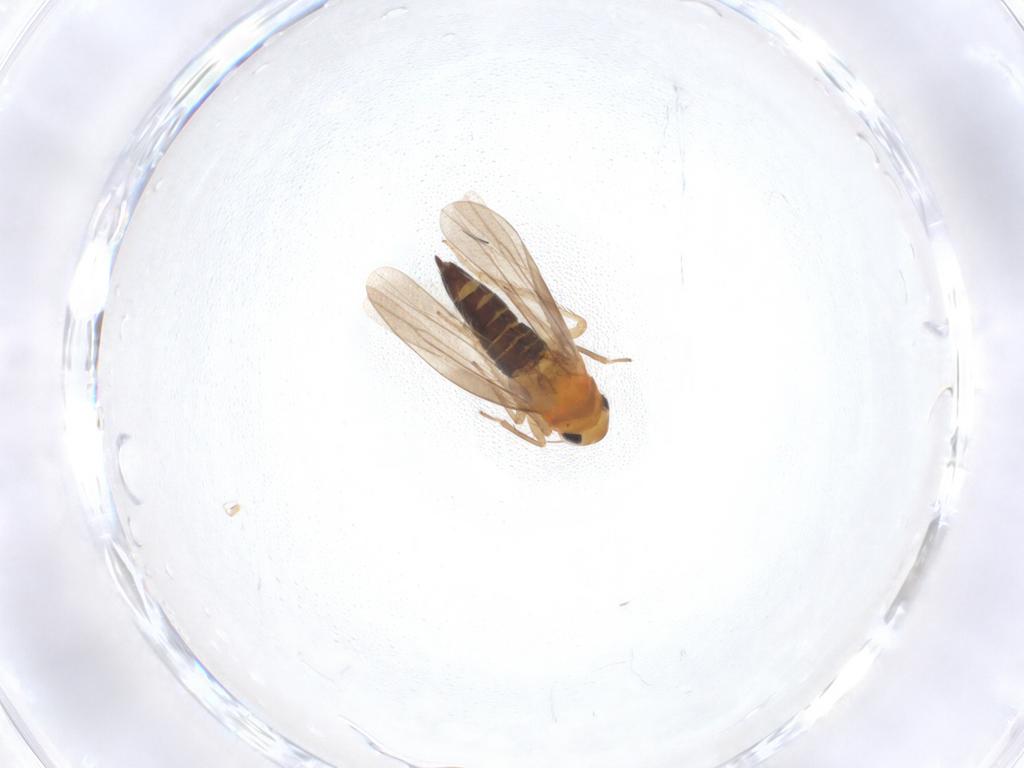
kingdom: Animalia
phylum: Arthropoda
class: Insecta
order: Hemiptera
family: Cicadellidae
